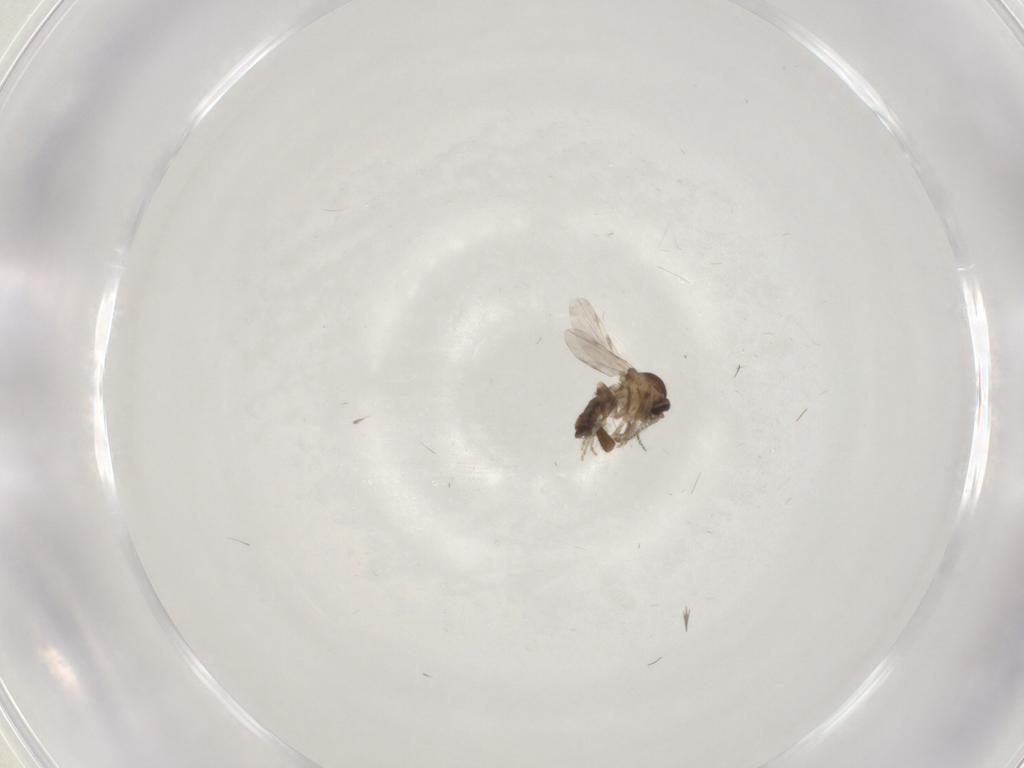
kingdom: Animalia
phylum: Arthropoda
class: Insecta
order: Diptera
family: Ceratopogonidae
